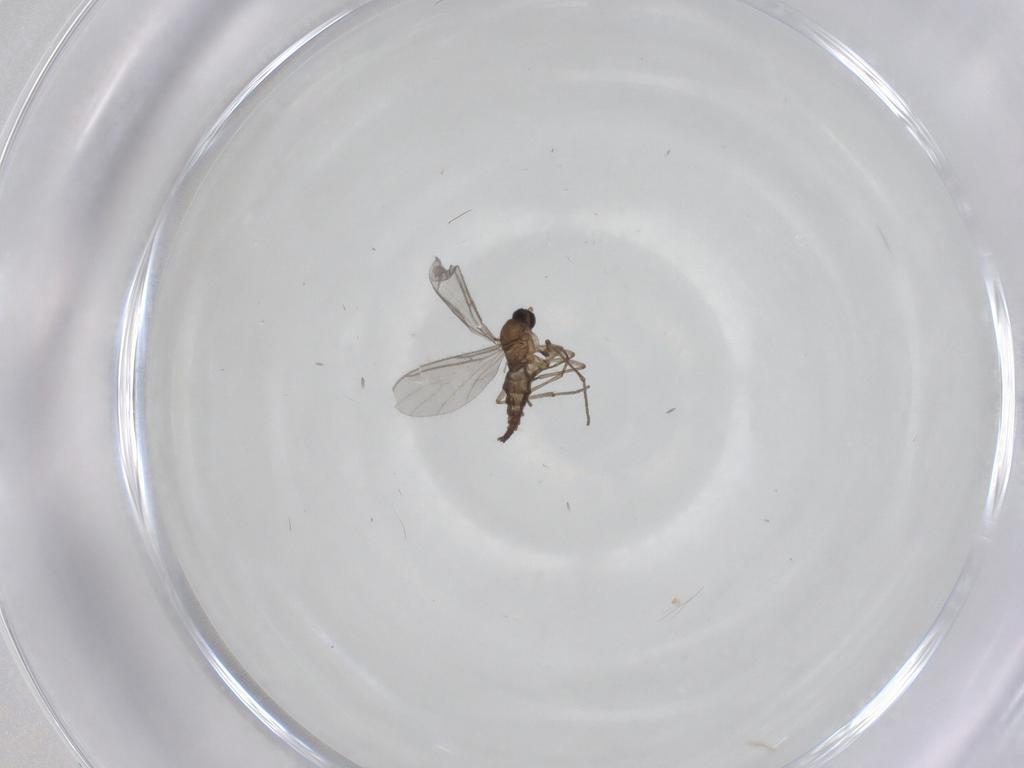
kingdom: Animalia
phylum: Arthropoda
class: Insecta
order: Diptera
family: Sciaridae
